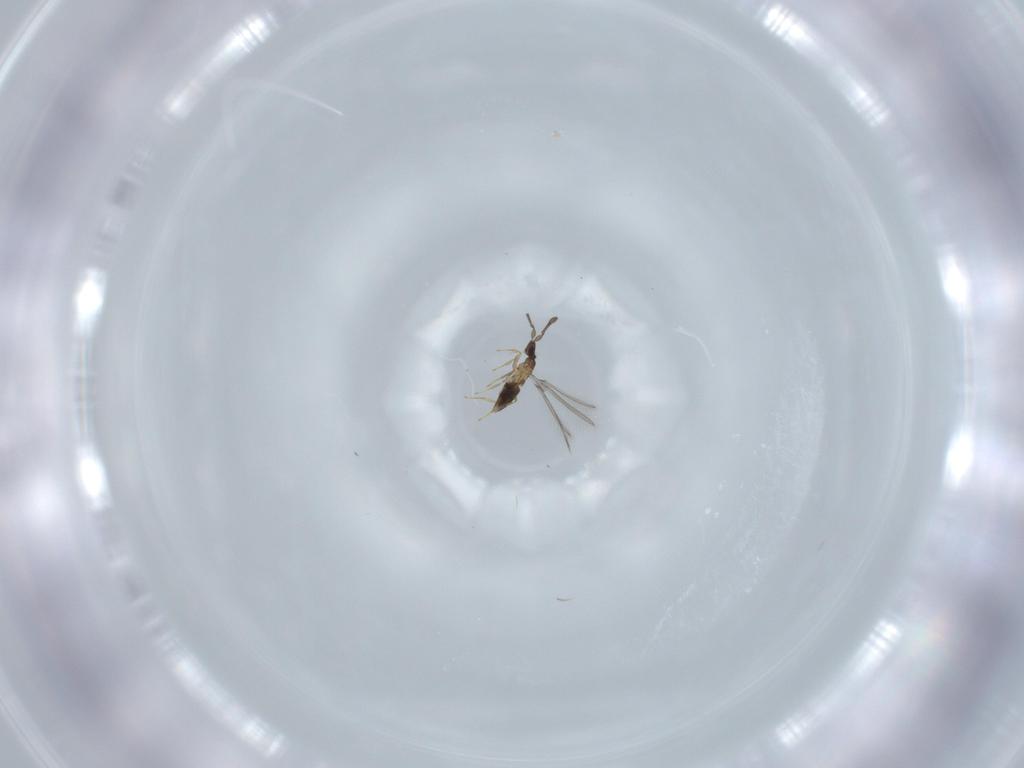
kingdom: Animalia
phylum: Arthropoda
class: Insecta
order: Hymenoptera
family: Mymaridae
